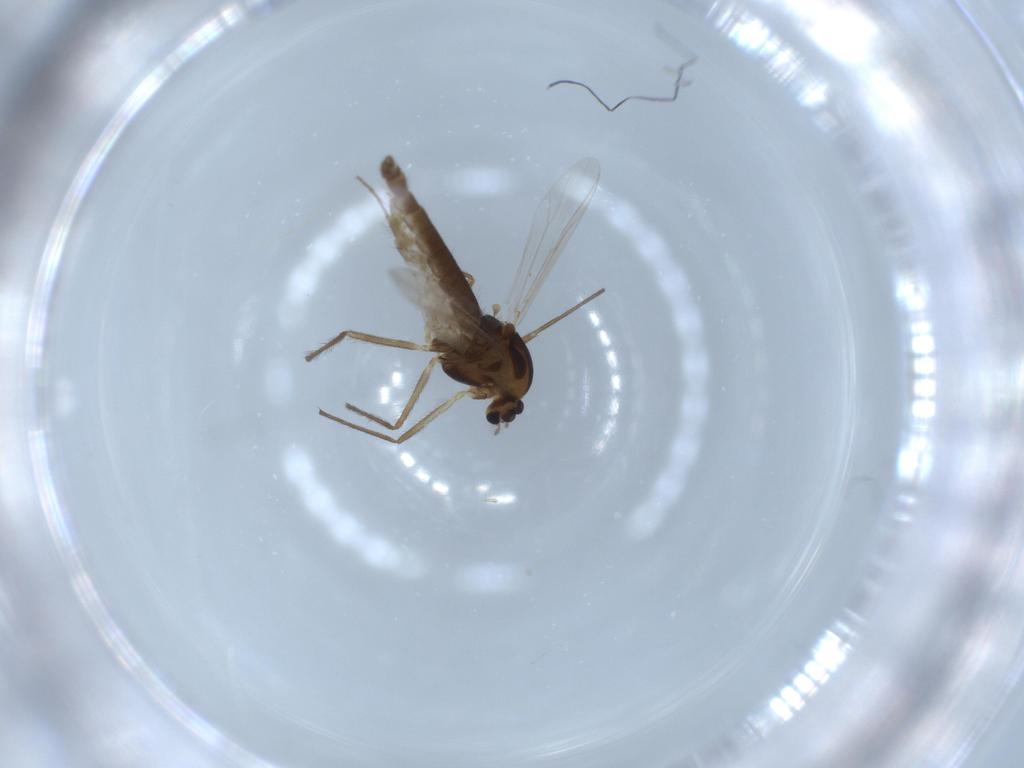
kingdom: Animalia
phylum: Arthropoda
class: Insecta
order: Diptera
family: Chironomidae
